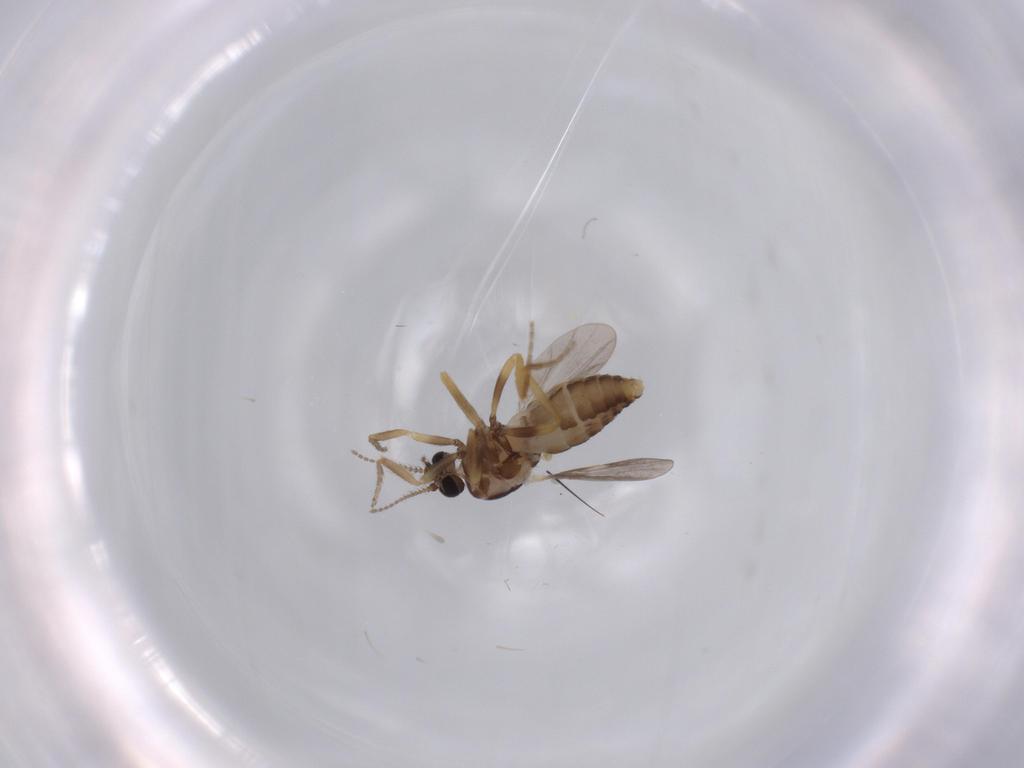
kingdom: Animalia
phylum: Arthropoda
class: Insecta
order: Diptera
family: Ceratopogonidae
